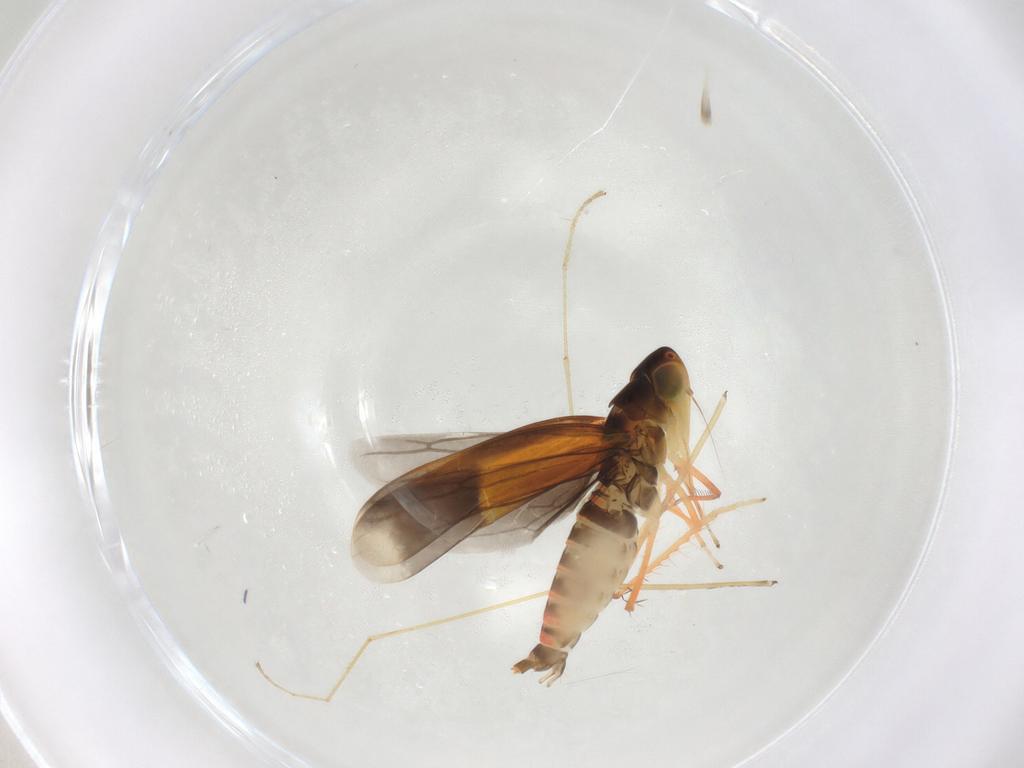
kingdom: Animalia
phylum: Arthropoda
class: Insecta
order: Hemiptera
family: Cicadellidae
